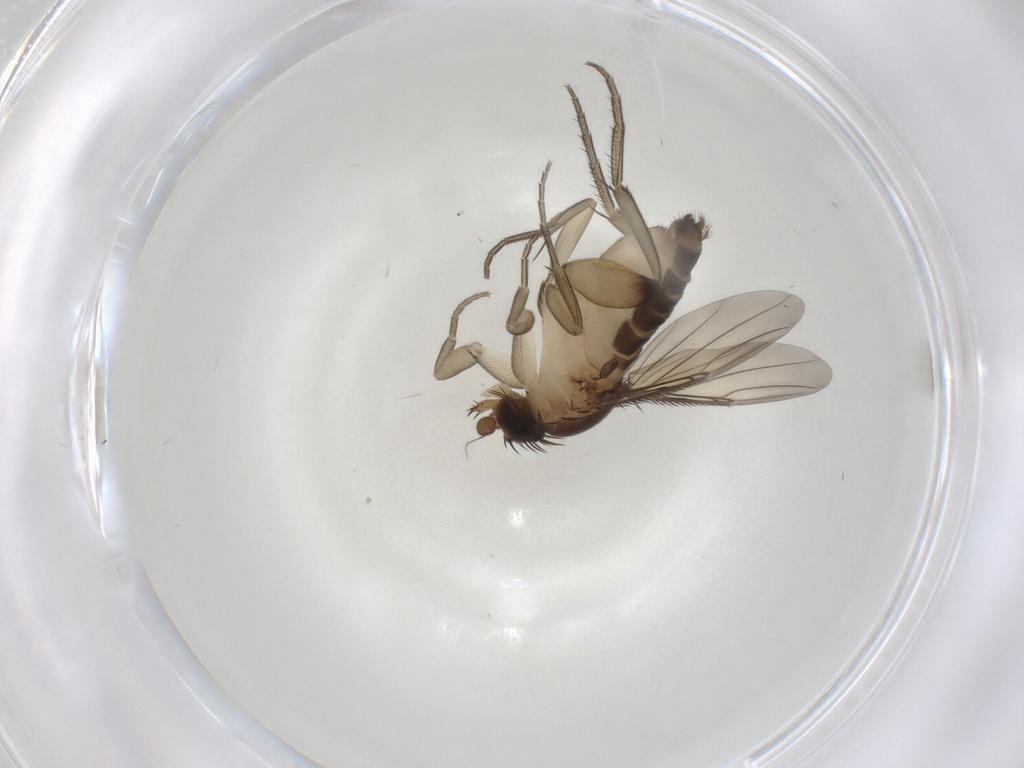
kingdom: Animalia
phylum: Arthropoda
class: Insecta
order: Diptera
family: Phoridae
